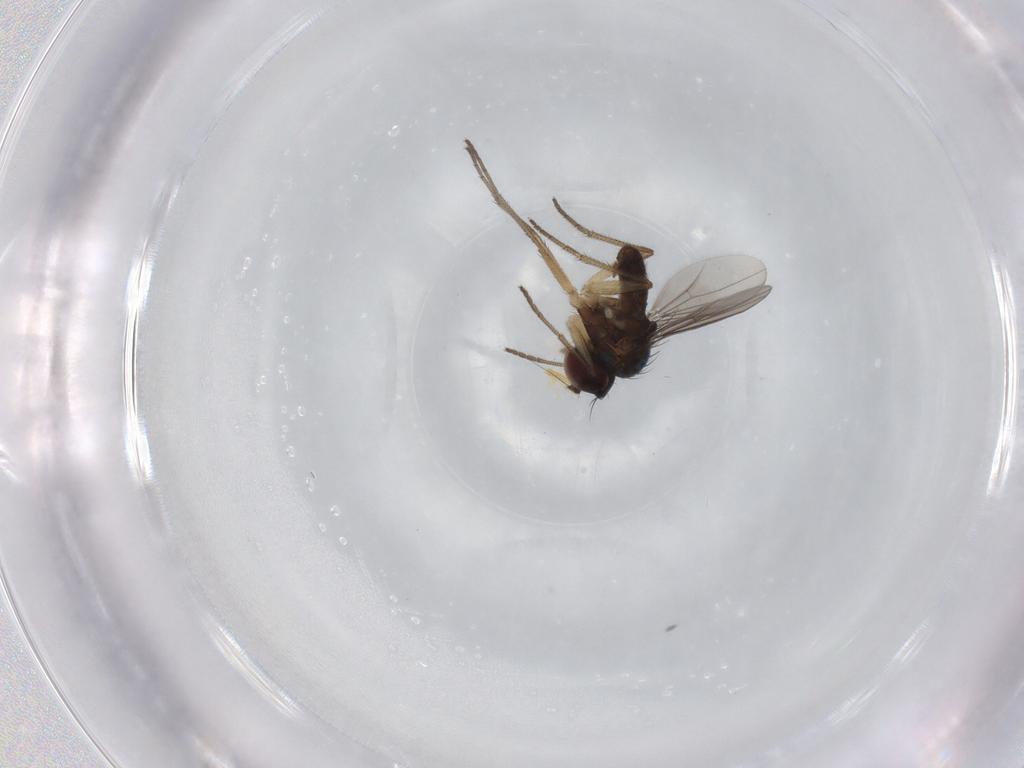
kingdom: Animalia
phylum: Arthropoda
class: Insecta
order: Diptera
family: Dolichopodidae
